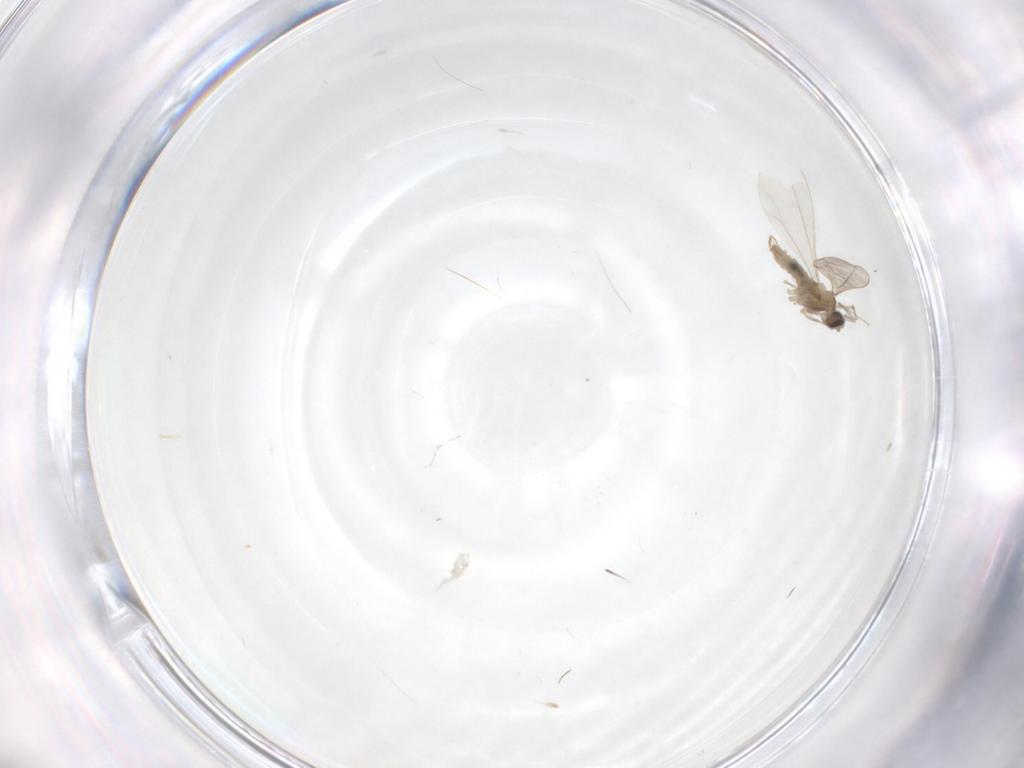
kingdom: Animalia
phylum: Arthropoda
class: Insecta
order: Diptera
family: Cecidomyiidae
